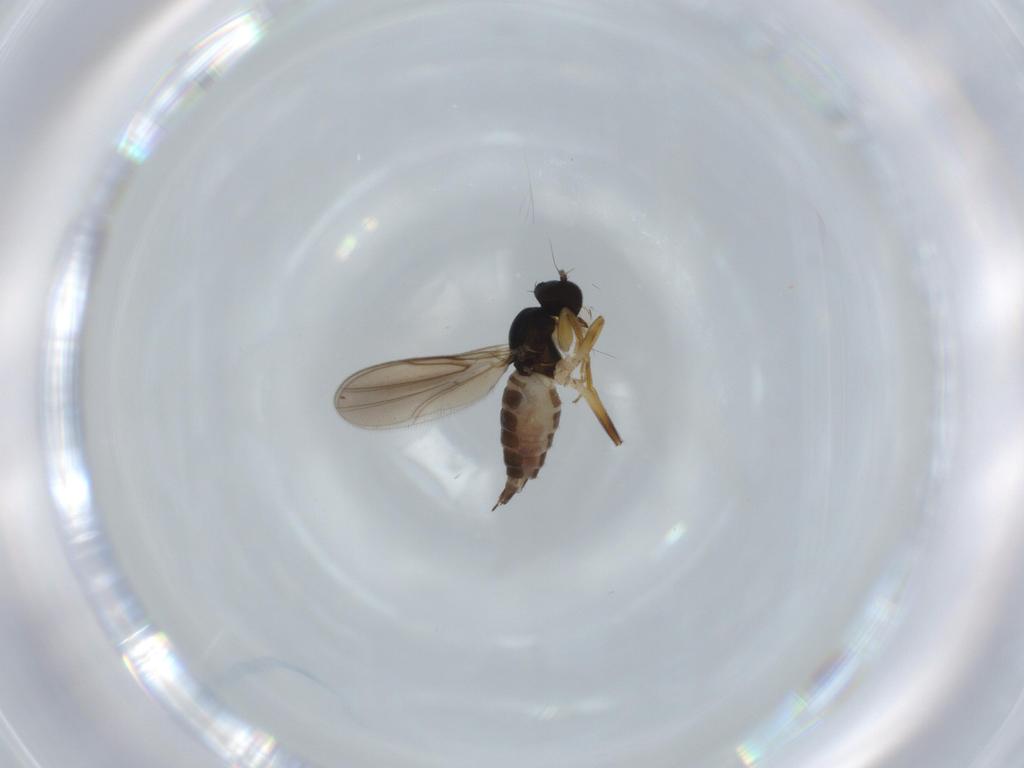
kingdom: Animalia
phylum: Arthropoda
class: Insecta
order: Diptera
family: Hybotidae
